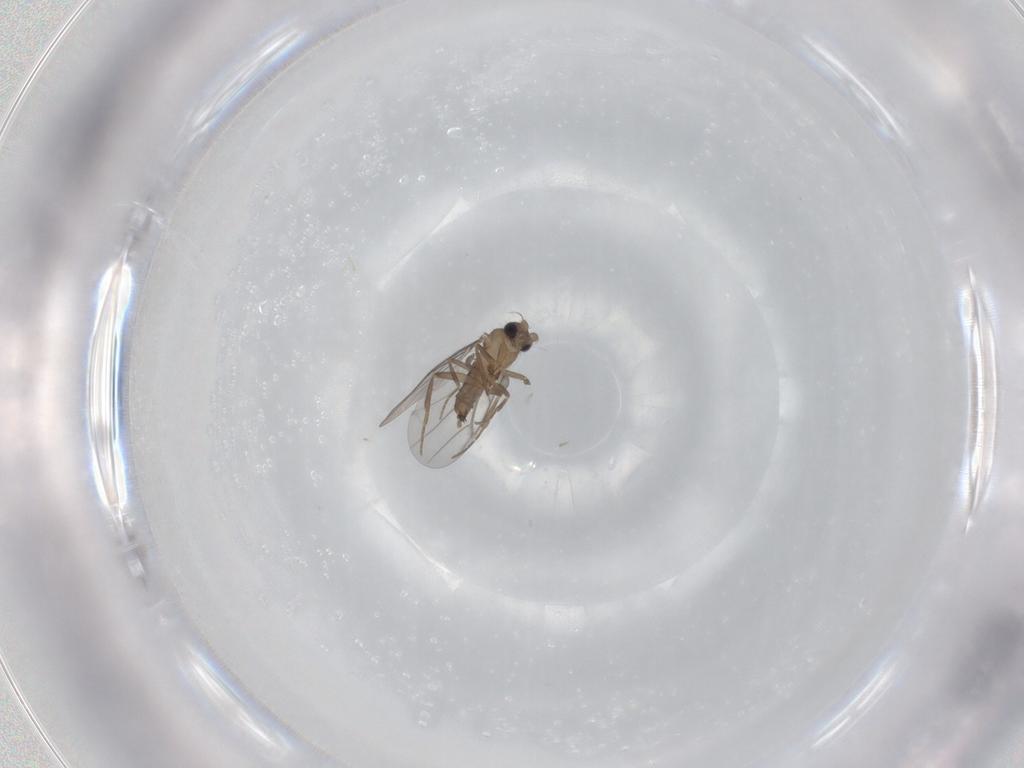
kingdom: Animalia
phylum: Arthropoda
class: Insecta
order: Diptera
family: Cecidomyiidae
